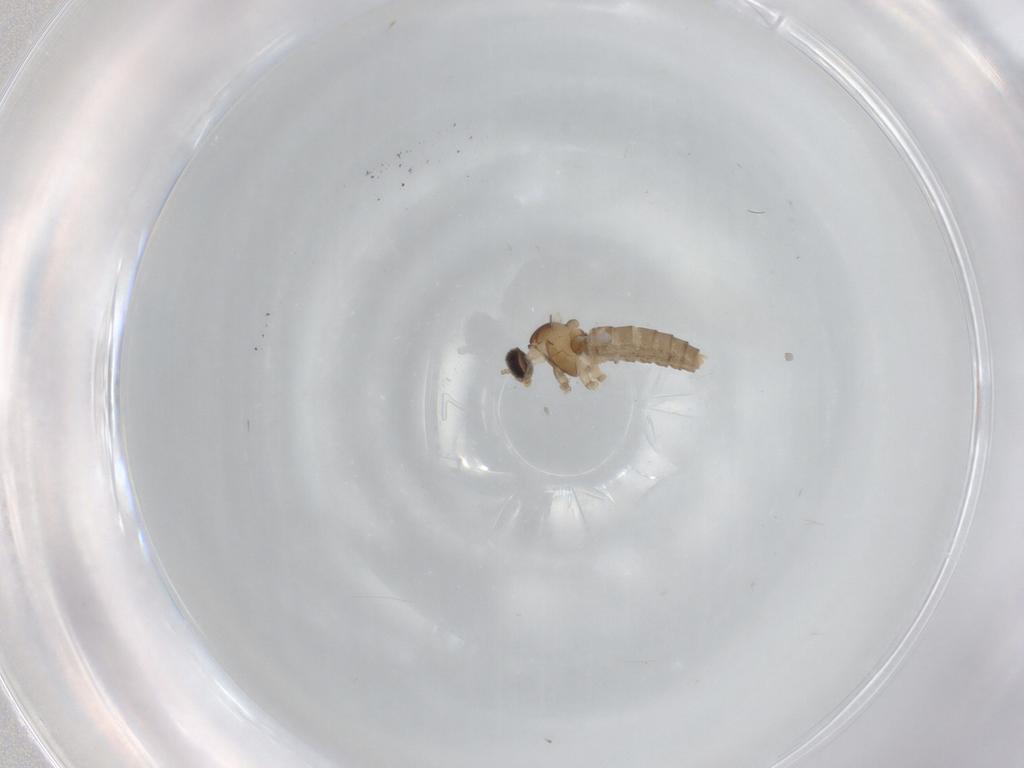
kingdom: Animalia
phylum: Arthropoda
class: Insecta
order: Diptera
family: Cecidomyiidae
